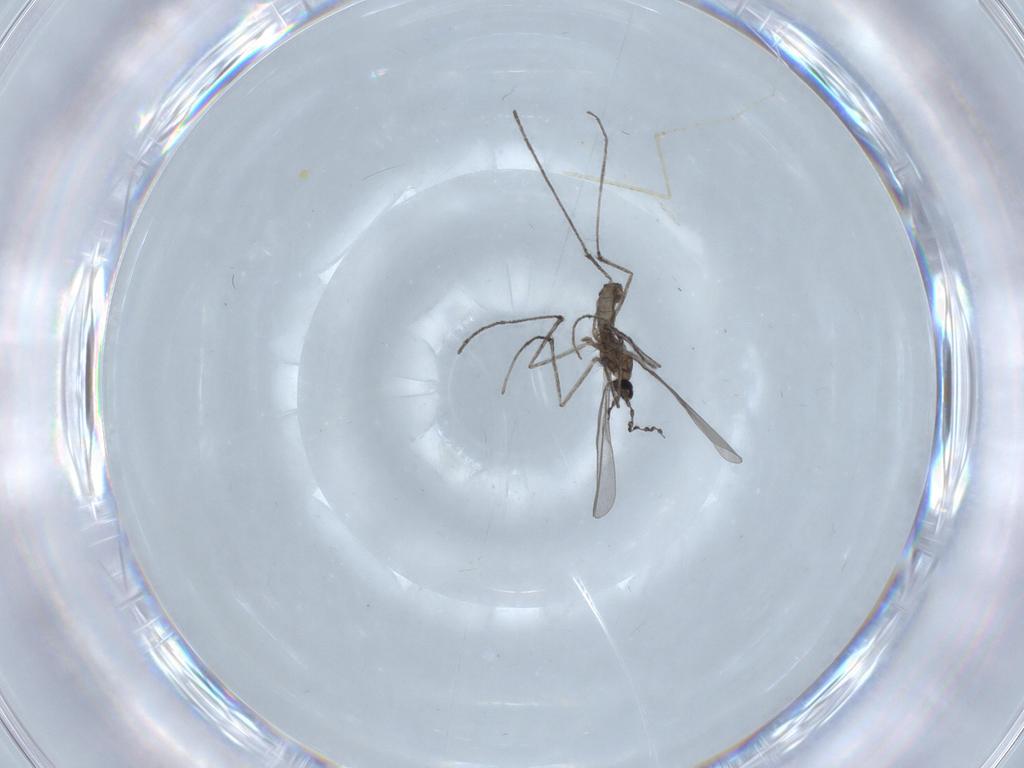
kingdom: Animalia
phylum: Arthropoda
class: Insecta
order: Diptera
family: Cecidomyiidae
